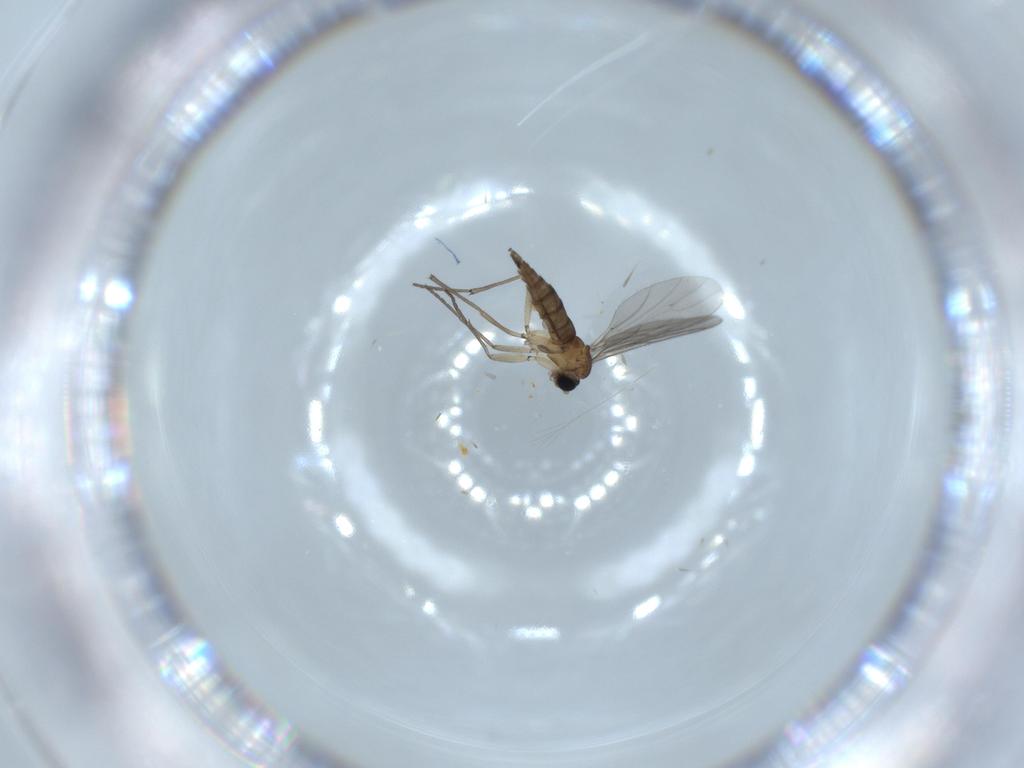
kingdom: Animalia
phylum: Arthropoda
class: Insecta
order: Diptera
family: Sciaridae
